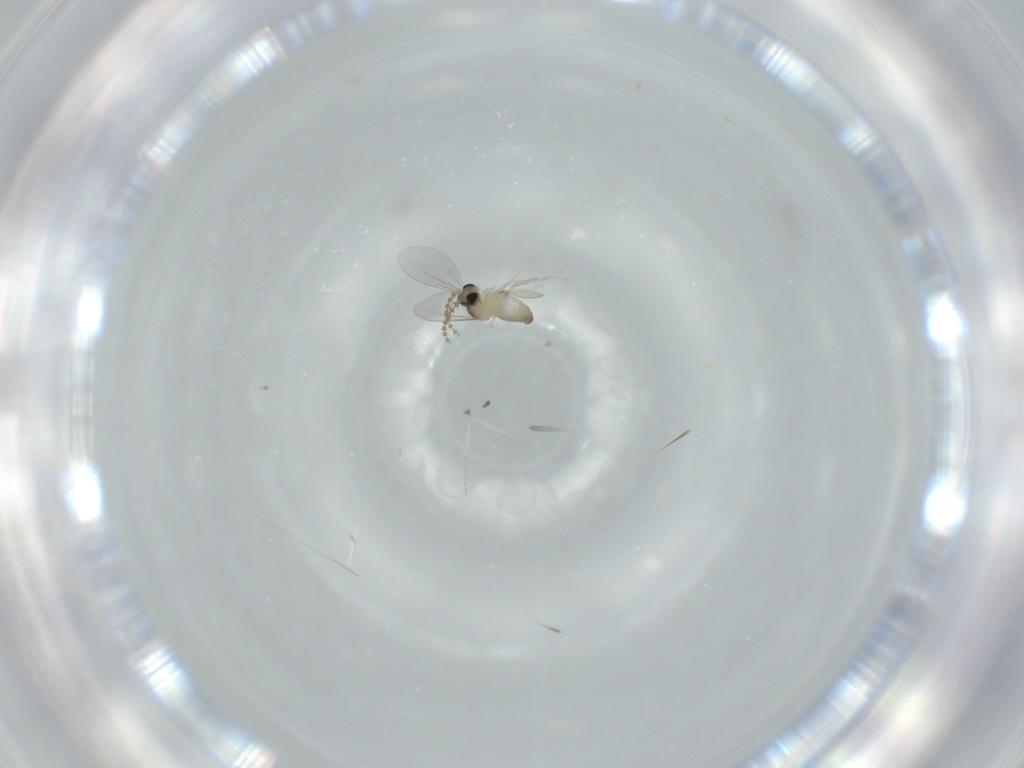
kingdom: Animalia
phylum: Arthropoda
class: Insecta
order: Diptera
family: Cecidomyiidae
